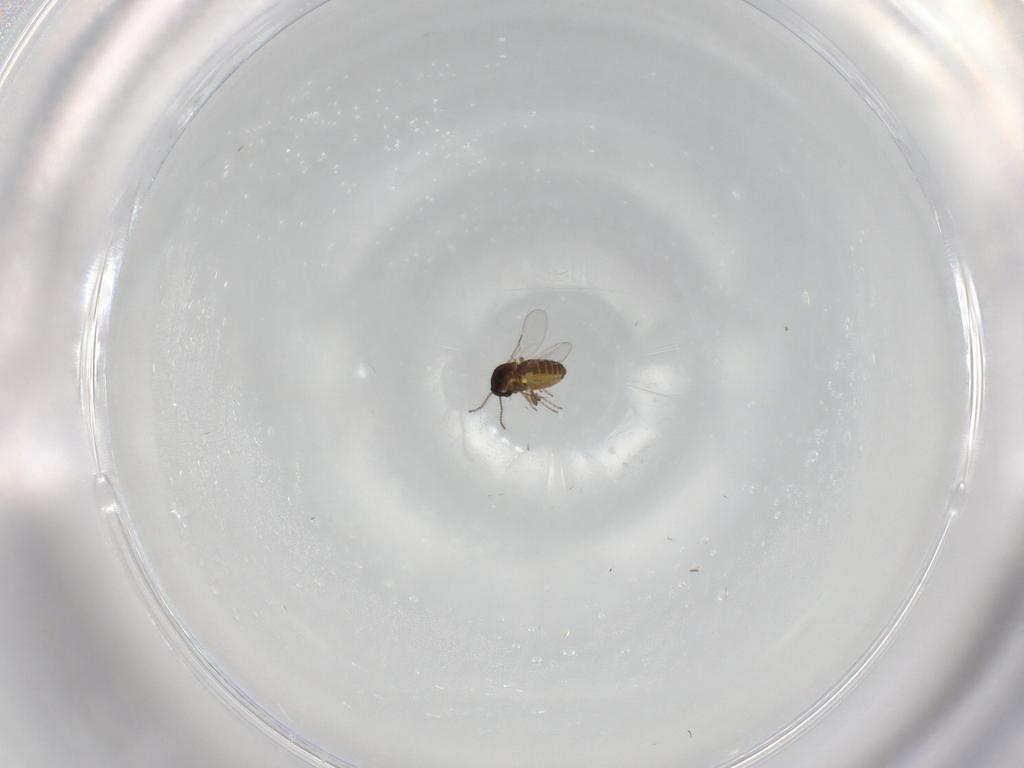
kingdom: Animalia
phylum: Arthropoda
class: Insecta
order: Diptera
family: Ceratopogonidae
